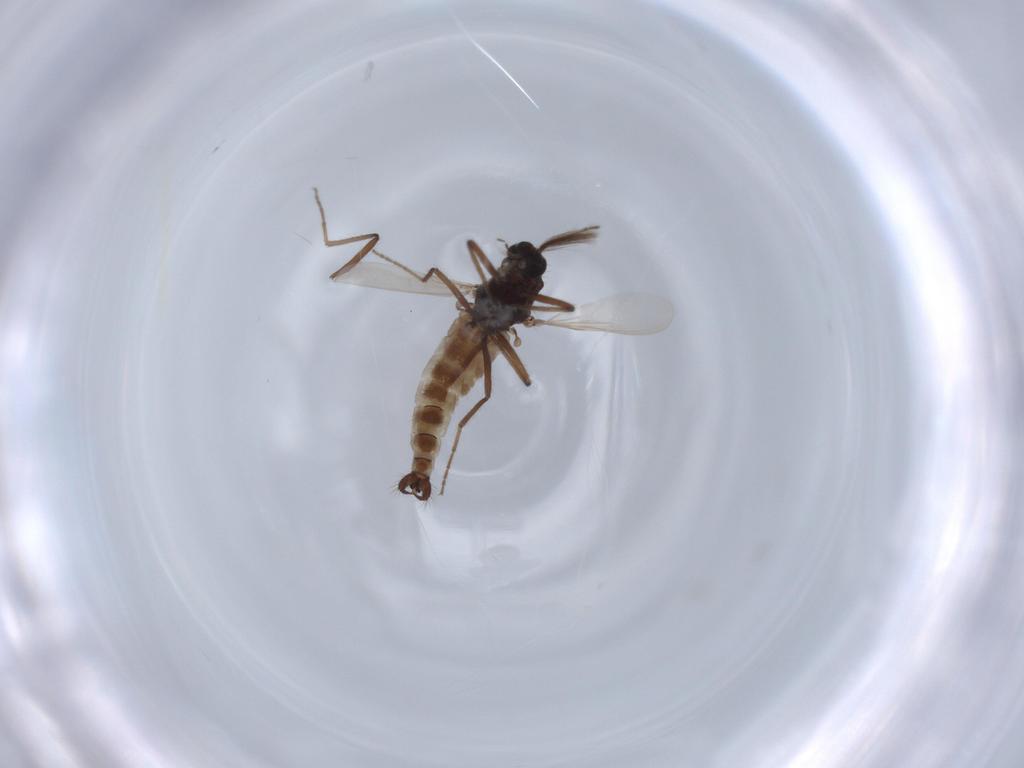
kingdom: Animalia
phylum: Arthropoda
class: Insecta
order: Diptera
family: Ceratopogonidae
